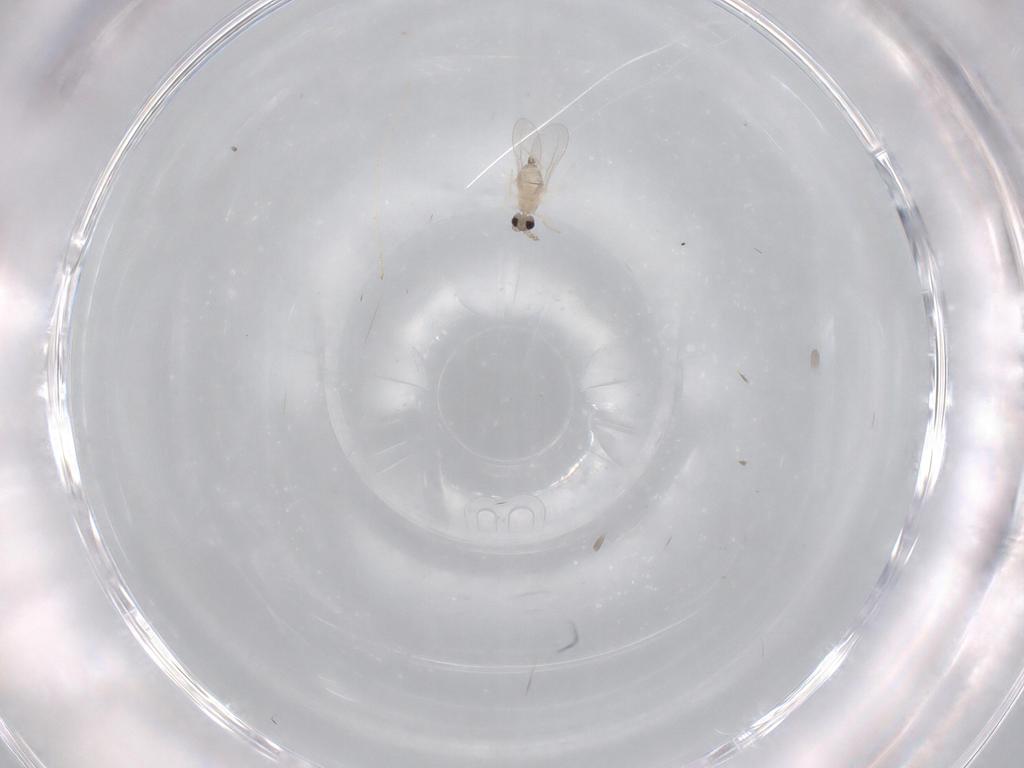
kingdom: Animalia
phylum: Arthropoda
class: Insecta
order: Diptera
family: Cecidomyiidae
